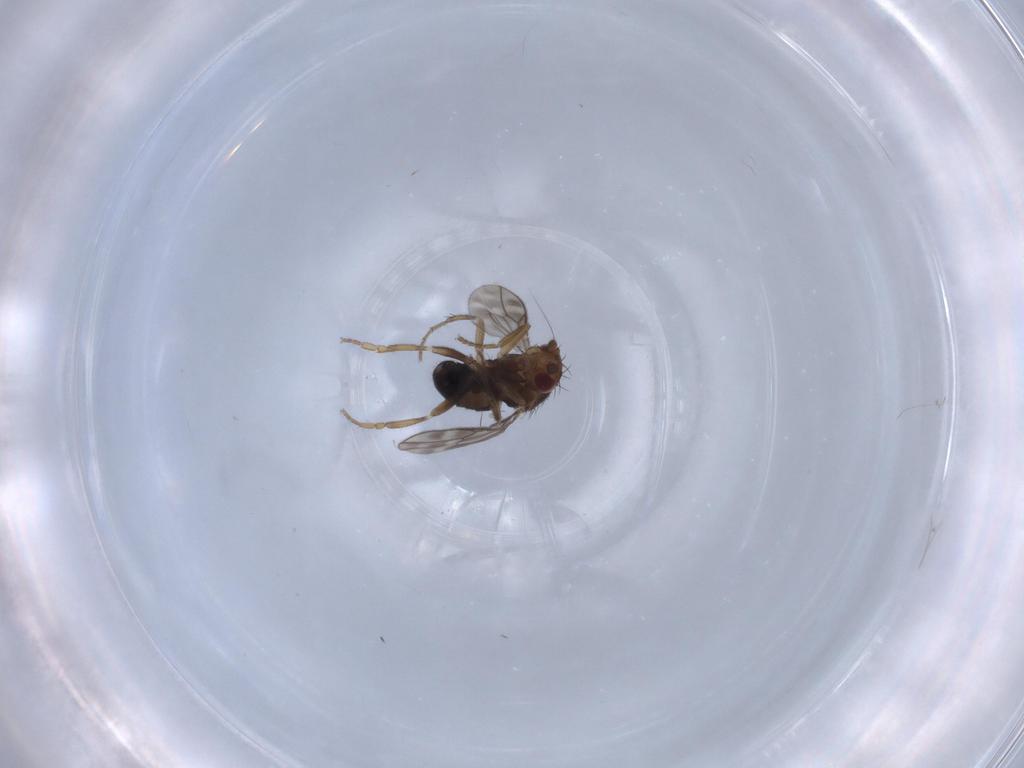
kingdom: Animalia
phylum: Arthropoda
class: Insecta
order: Diptera
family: Sphaeroceridae
